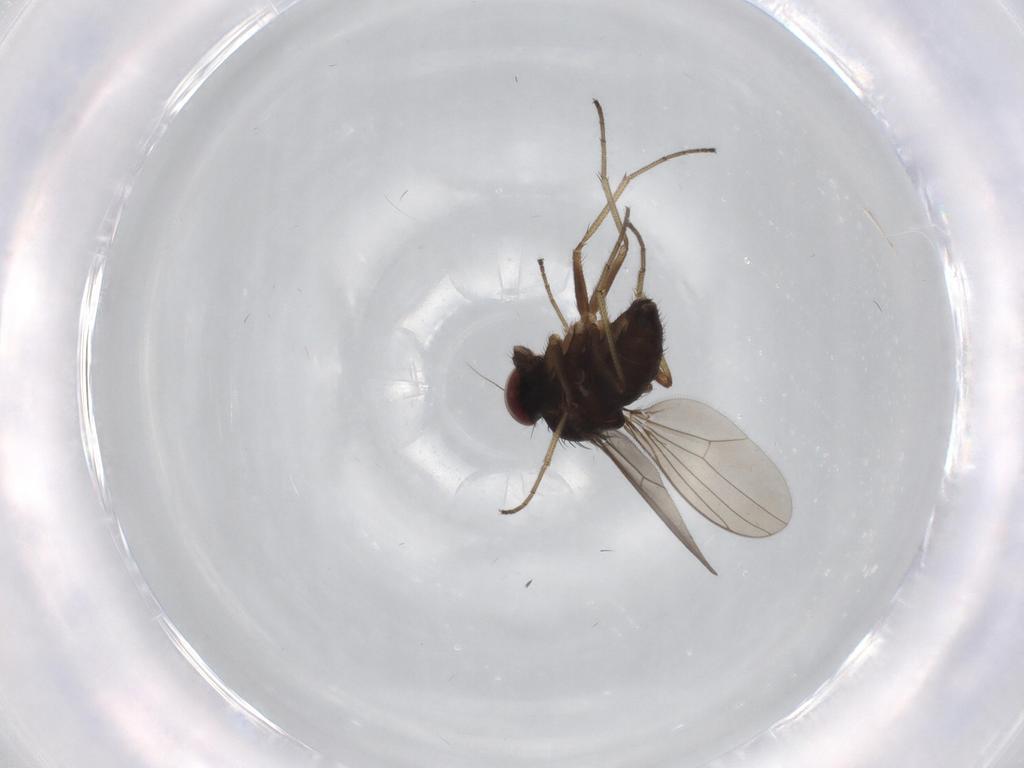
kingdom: Animalia
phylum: Arthropoda
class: Insecta
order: Diptera
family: Dolichopodidae
